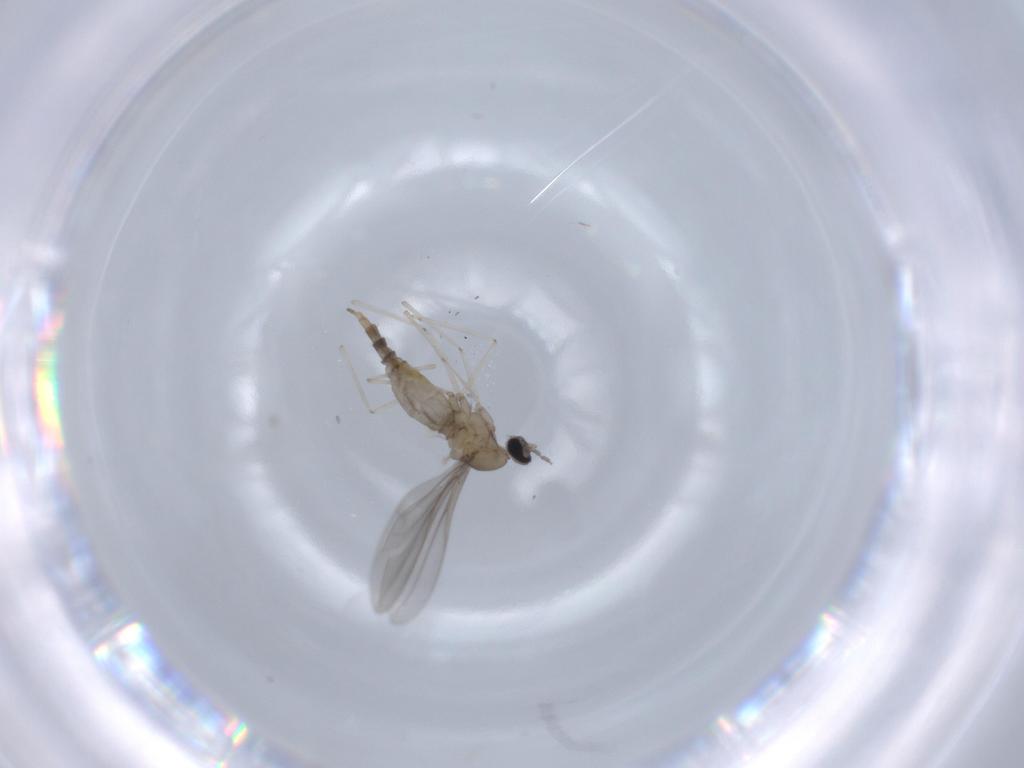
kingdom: Animalia
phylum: Arthropoda
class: Insecta
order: Diptera
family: Cecidomyiidae
